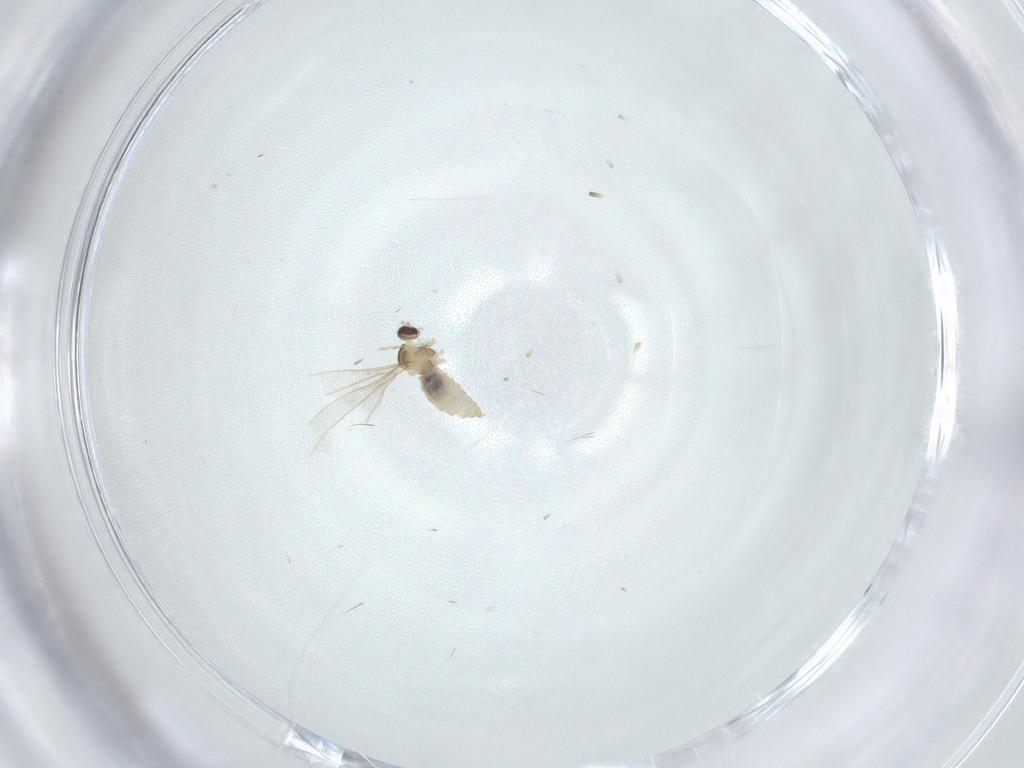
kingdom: Animalia
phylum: Arthropoda
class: Insecta
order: Diptera
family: Cecidomyiidae
